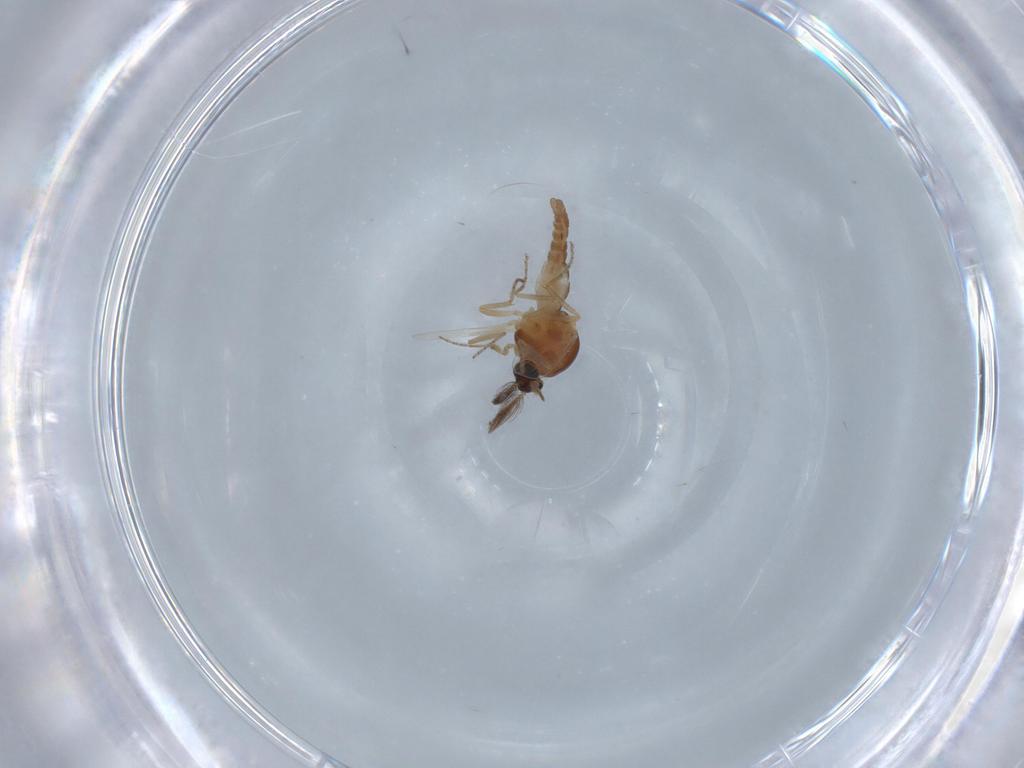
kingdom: Animalia
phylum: Arthropoda
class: Insecta
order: Diptera
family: Ceratopogonidae
